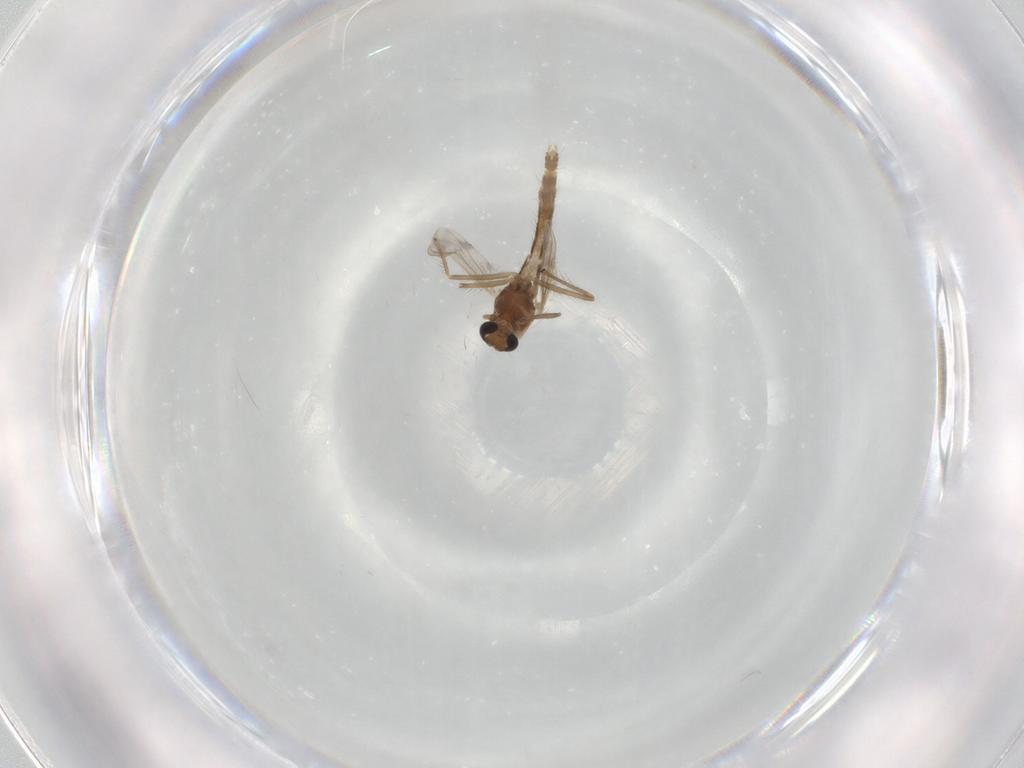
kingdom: Animalia
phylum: Arthropoda
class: Insecta
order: Diptera
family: Chironomidae
